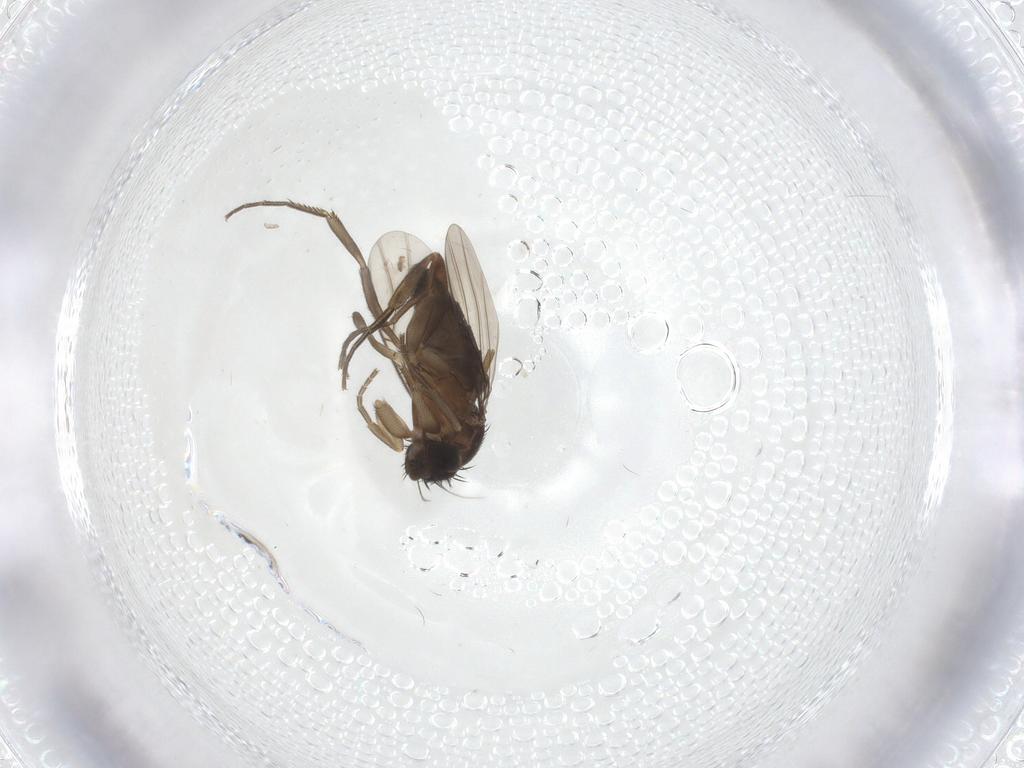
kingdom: Animalia
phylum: Arthropoda
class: Insecta
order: Diptera
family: Phoridae
